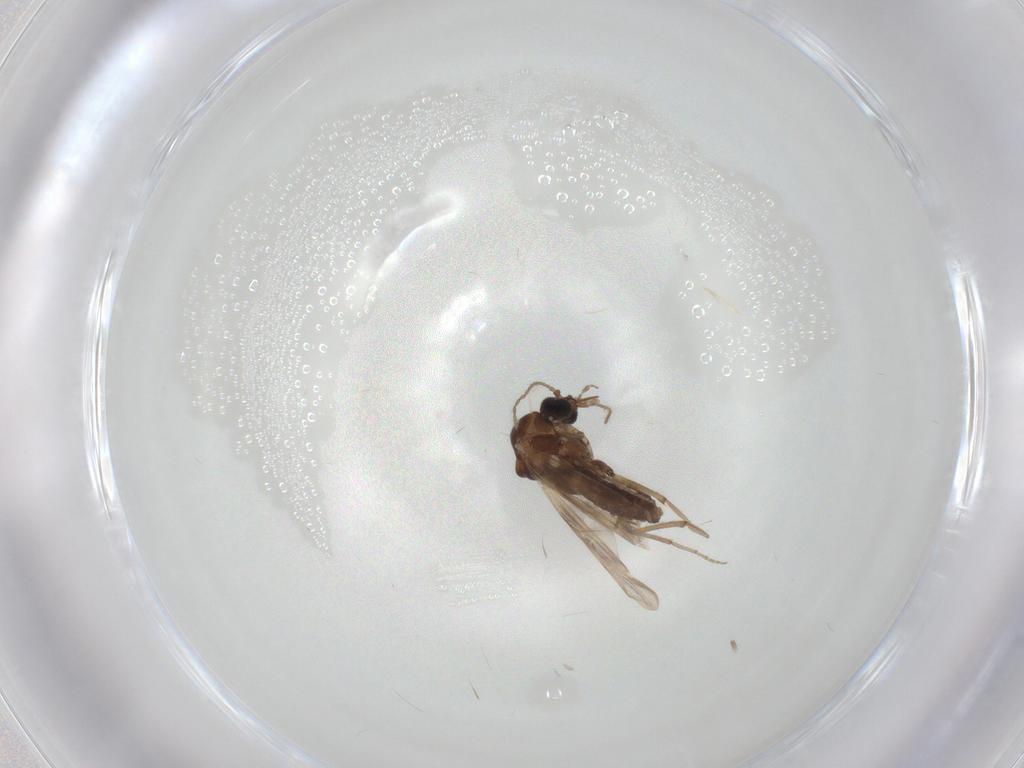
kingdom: Animalia
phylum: Arthropoda
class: Insecta
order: Diptera
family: Ceratopogonidae
